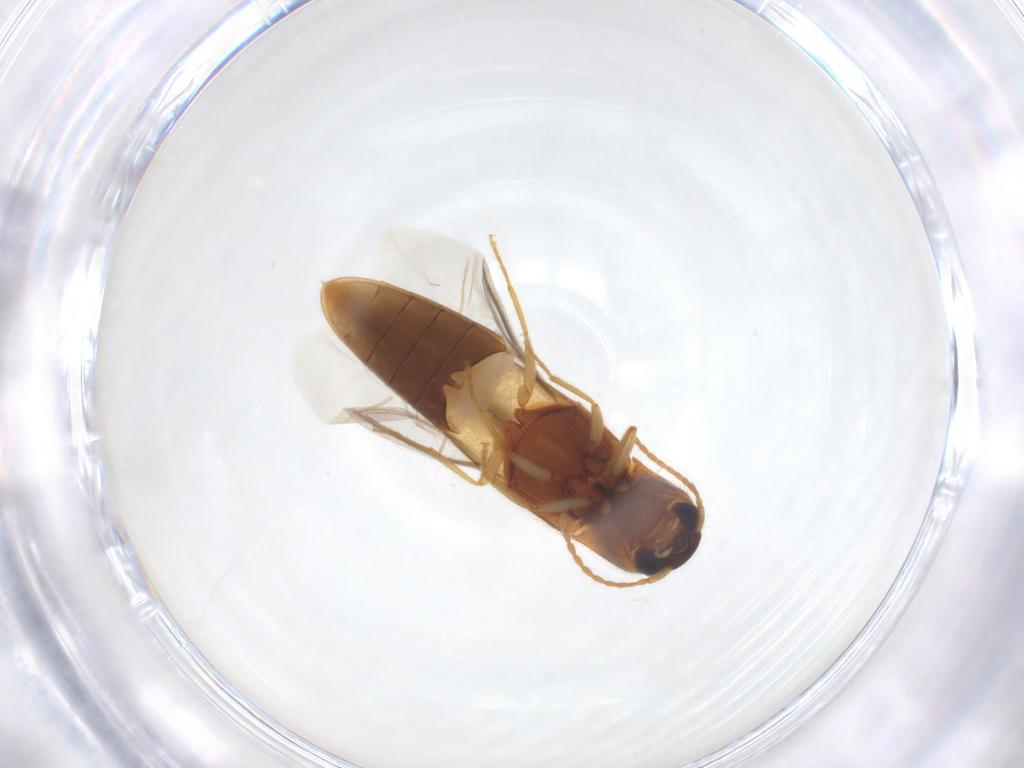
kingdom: Animalia
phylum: Arthropoda
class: Insecta
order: Coleoptera
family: Elateridae
